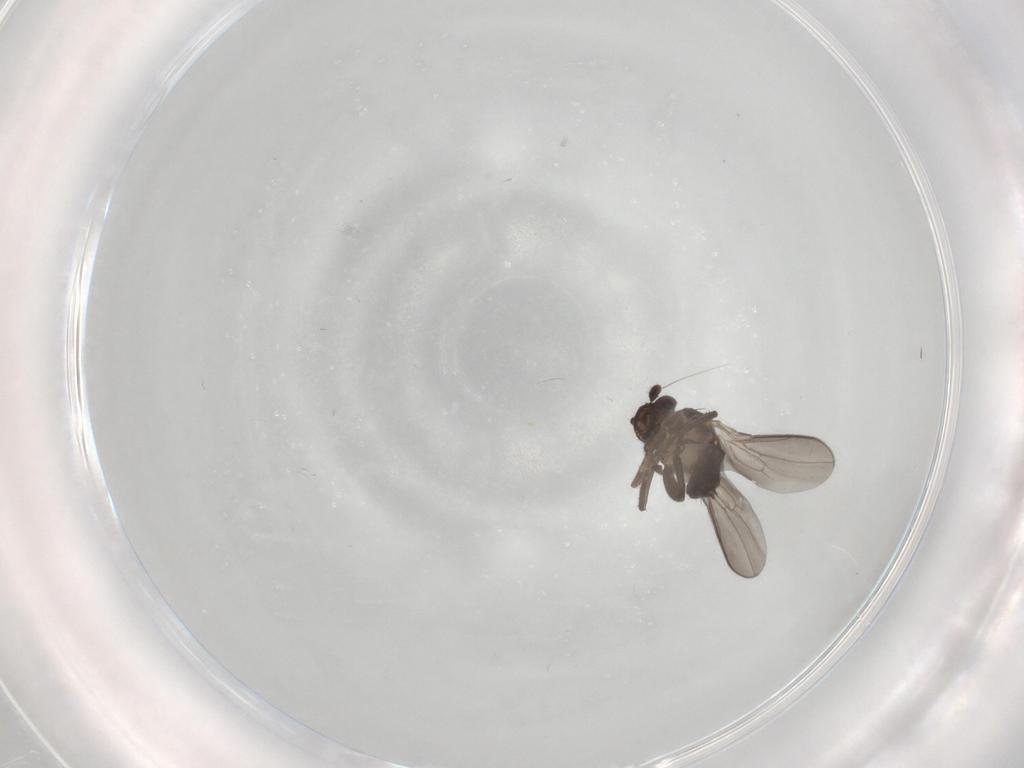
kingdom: Animalia
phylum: Arthropoda
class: Insecta
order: Diptera
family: Sphaeroceridae
